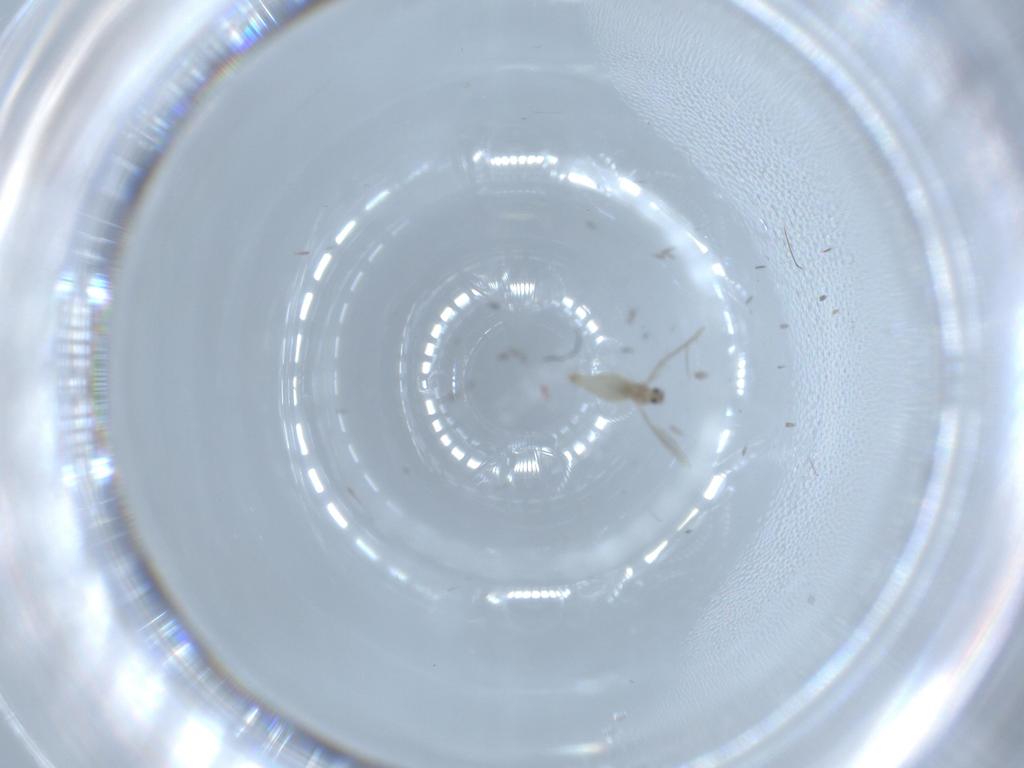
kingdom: Animalia
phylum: Arthropoda
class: Insecta
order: Diptera
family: Cecidomyiidae
